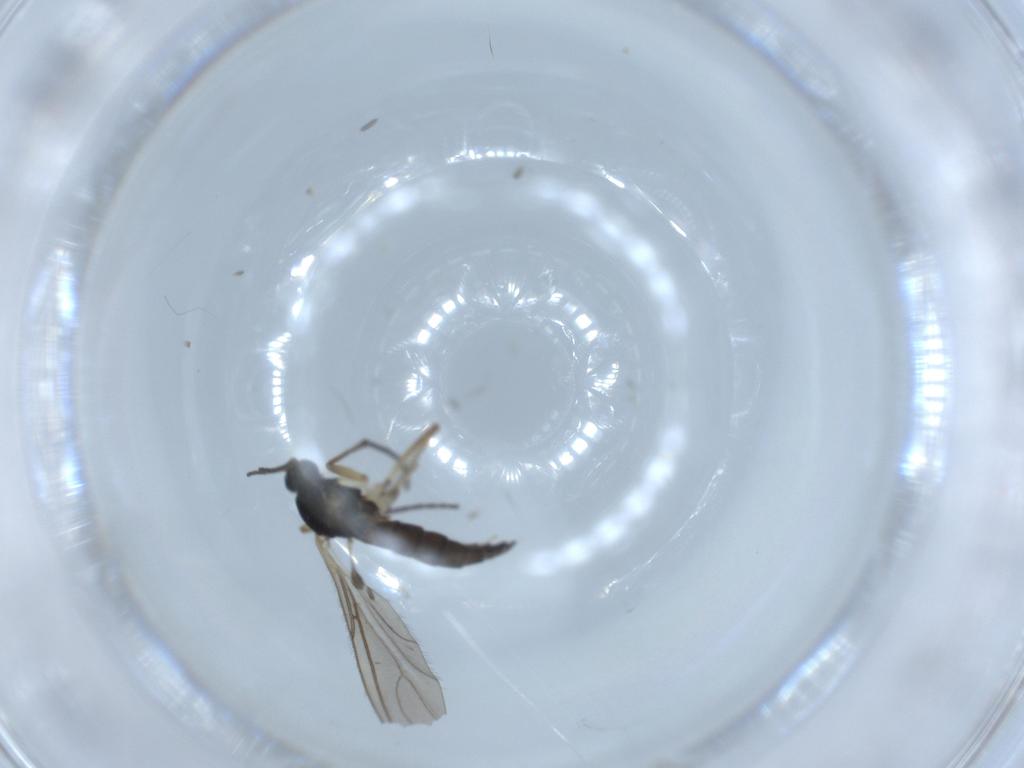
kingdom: Animalia
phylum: Arthropoda
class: Insecta
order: Diptera
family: Sciaridae
